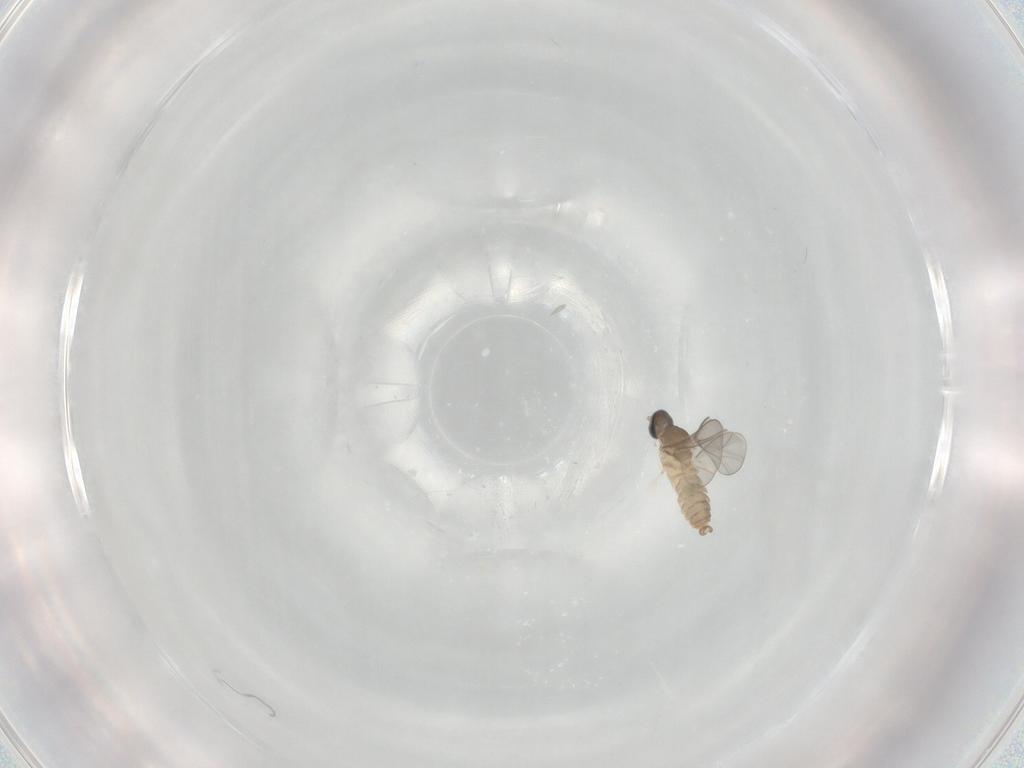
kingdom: Animalia
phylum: Arthropoda
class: Insecta
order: Diptera
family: Cecidomyiidae
